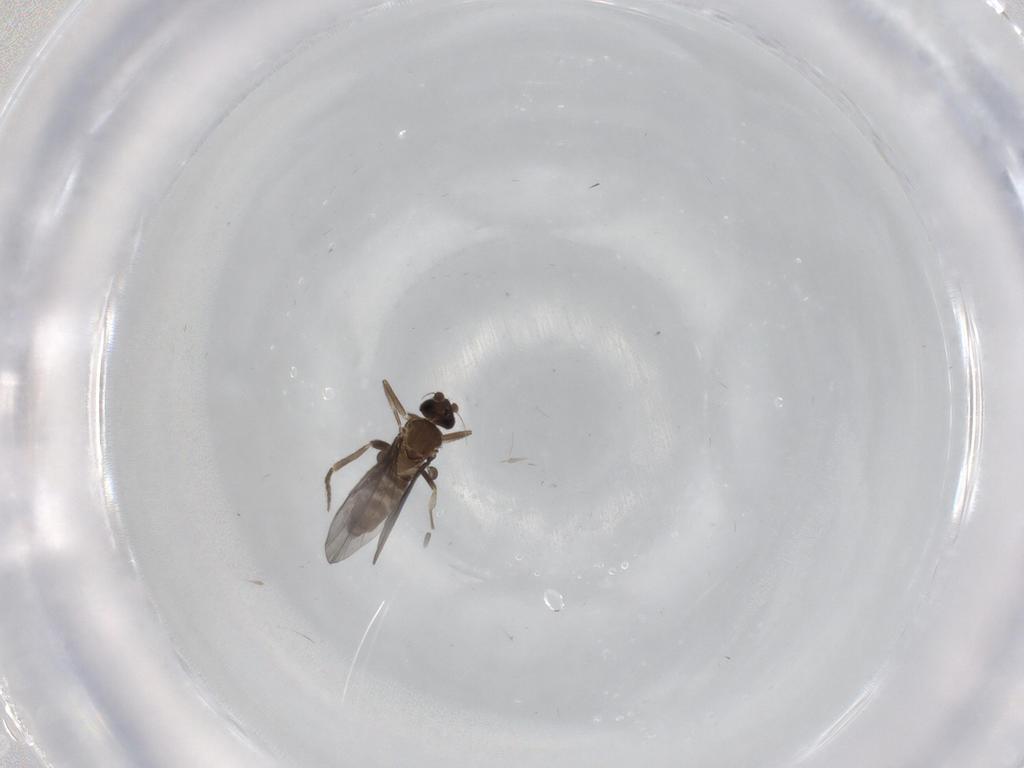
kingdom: Animalia
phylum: Arthropoda
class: Insecta
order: Diptera
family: Phoridae
